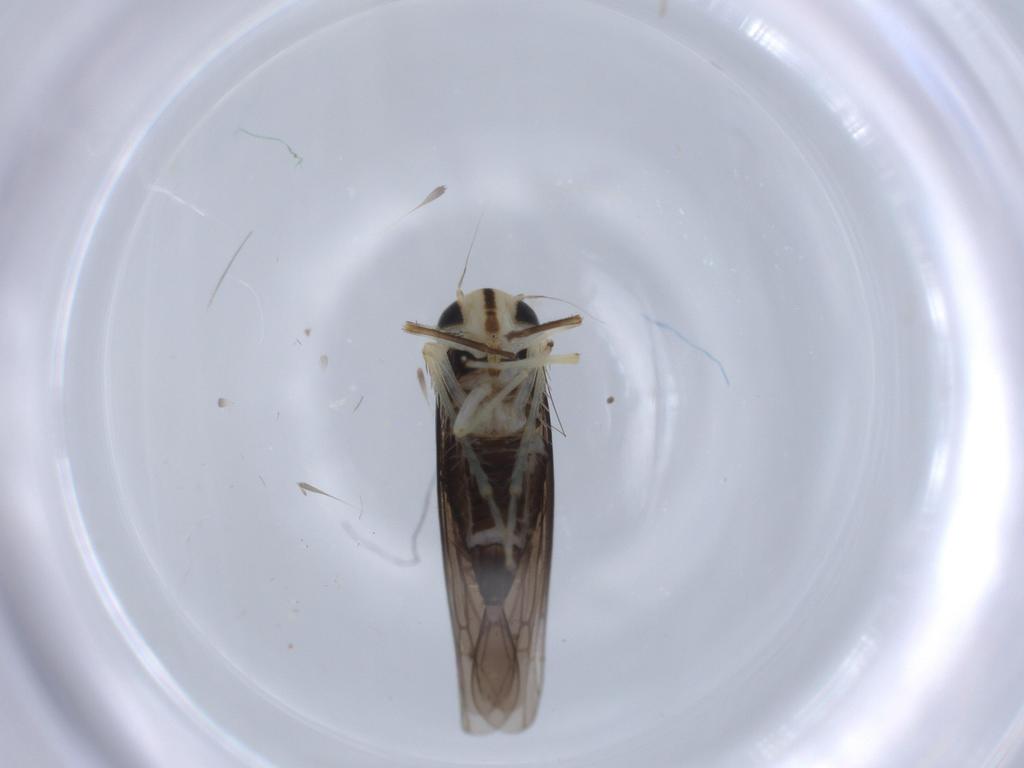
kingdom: Animalia
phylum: Arthropoda
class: Insecta
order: Hemiptera
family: Cicadellidae
